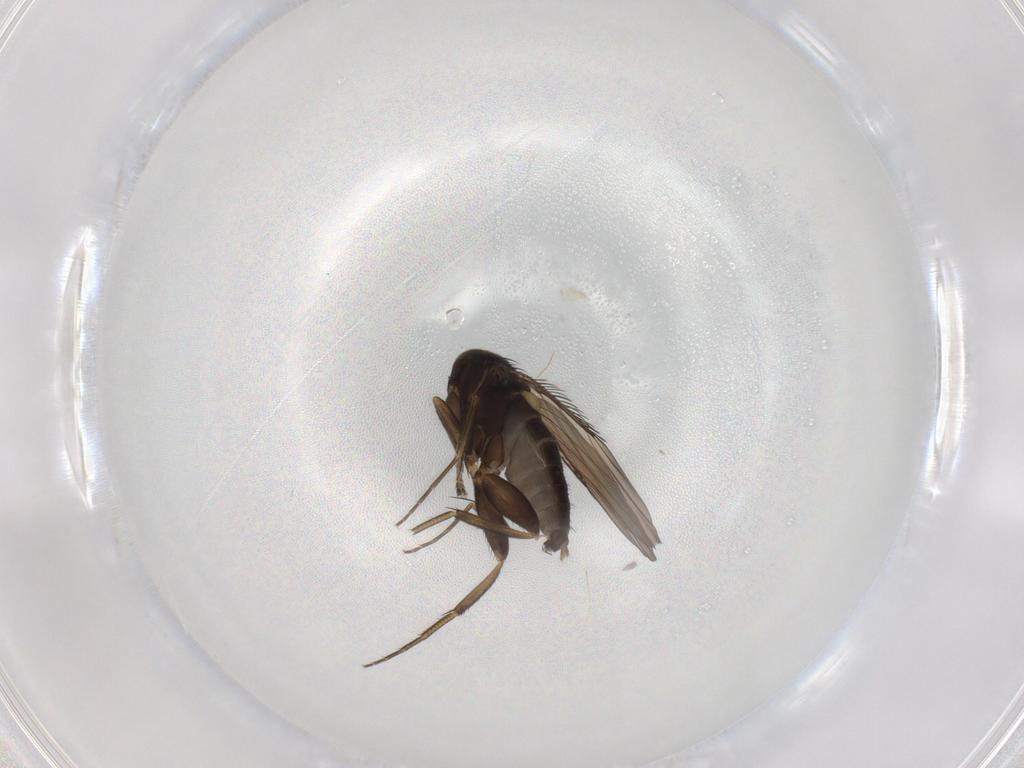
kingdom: Animalia
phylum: Arthropoda
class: Insecta
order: Diptera
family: Phoridae
